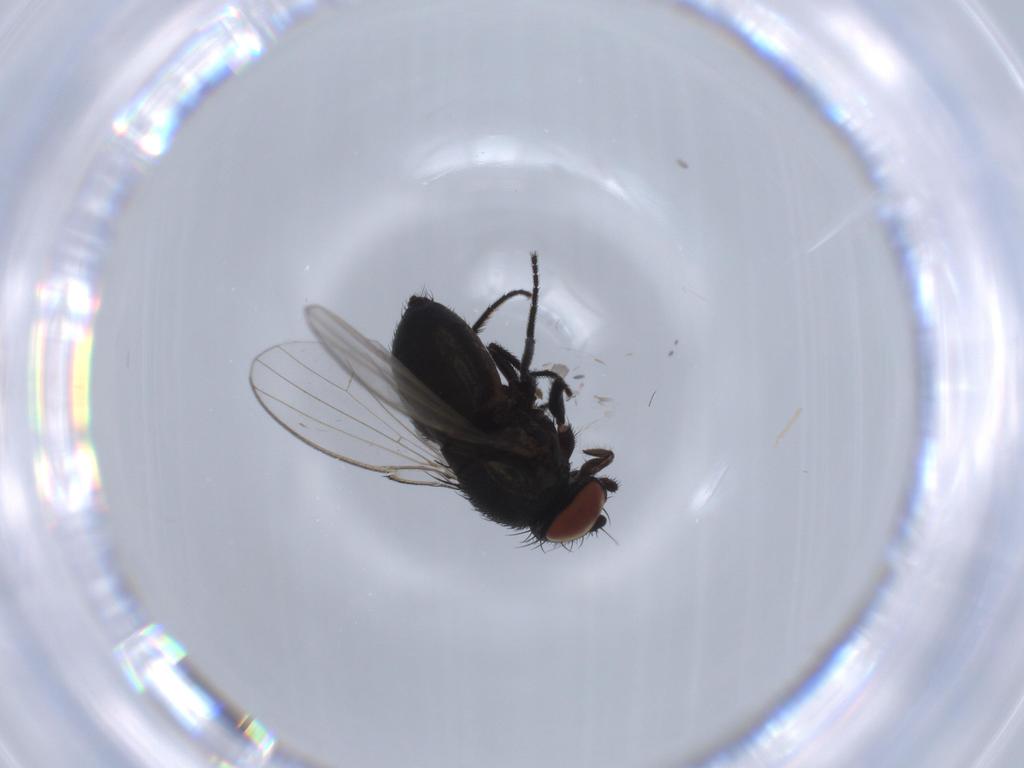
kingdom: Animalia
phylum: Arthropoda
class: Insecta
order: Diptera
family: Milichiidae
